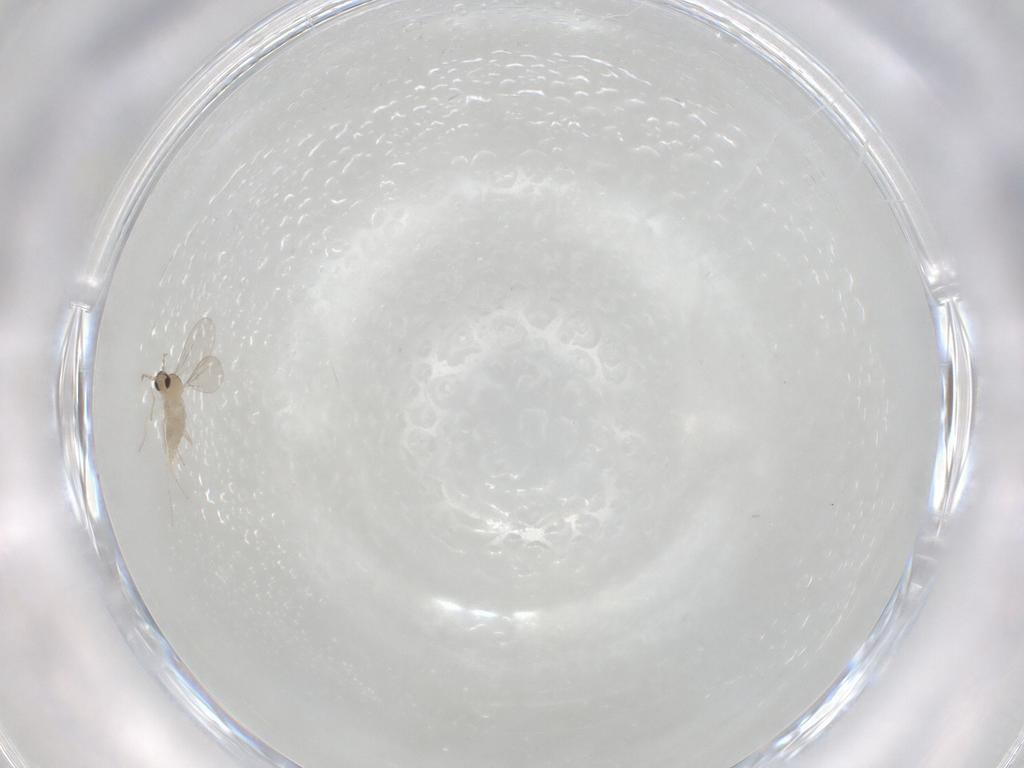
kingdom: Animalia
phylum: Arthropoda
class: Insecta
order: Diptera
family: Cecidomyiidae
